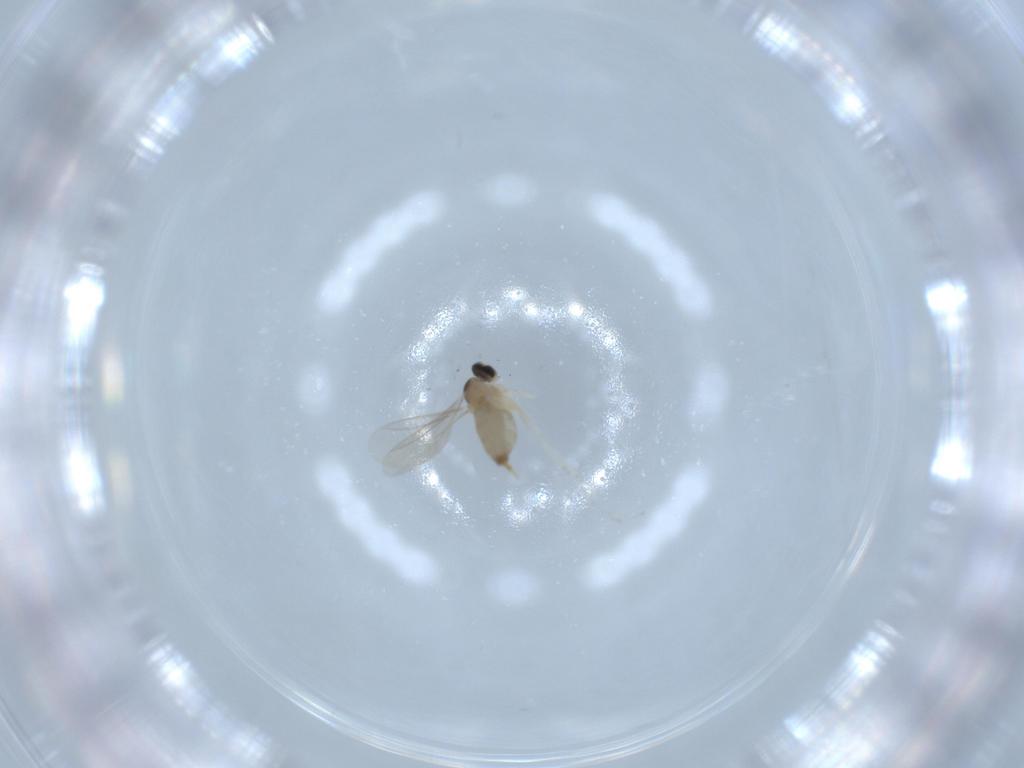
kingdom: Animalia
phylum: Arthropoda
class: Insecta
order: Diptera
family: Cecidomyiidae
